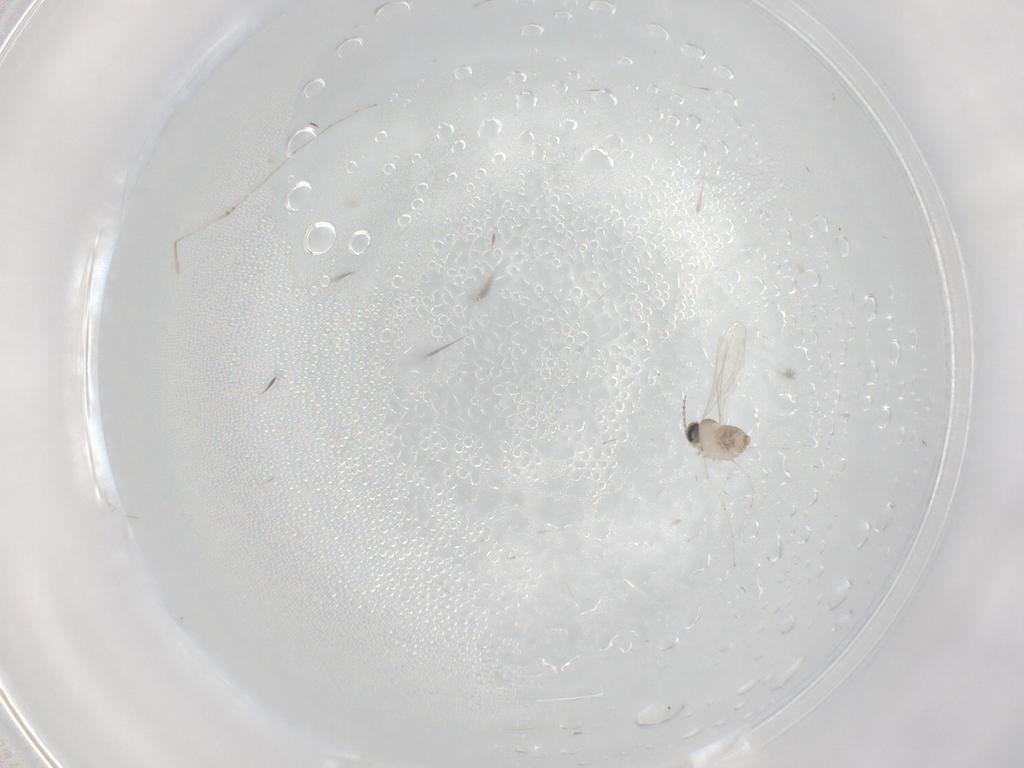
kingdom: Animalia
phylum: Arthropoda
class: Insecta
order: Diptera
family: Cecidomyiidae
